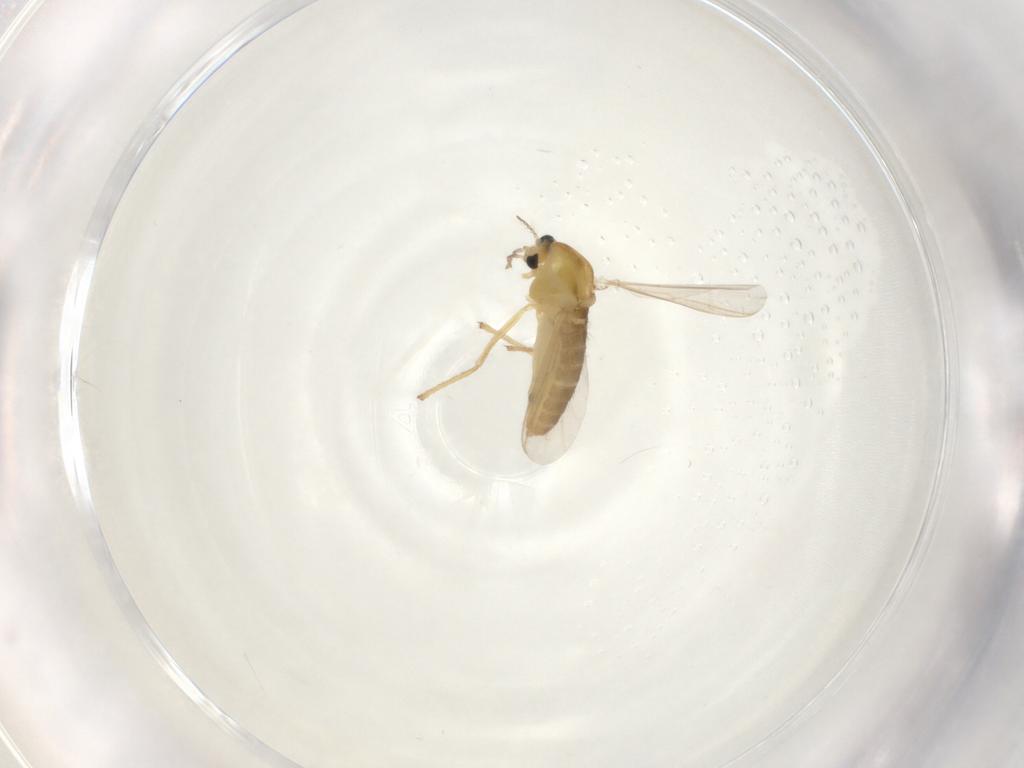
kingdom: Animalia
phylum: Arthropoda
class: Insecta
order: Diptera
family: Chironomidae
